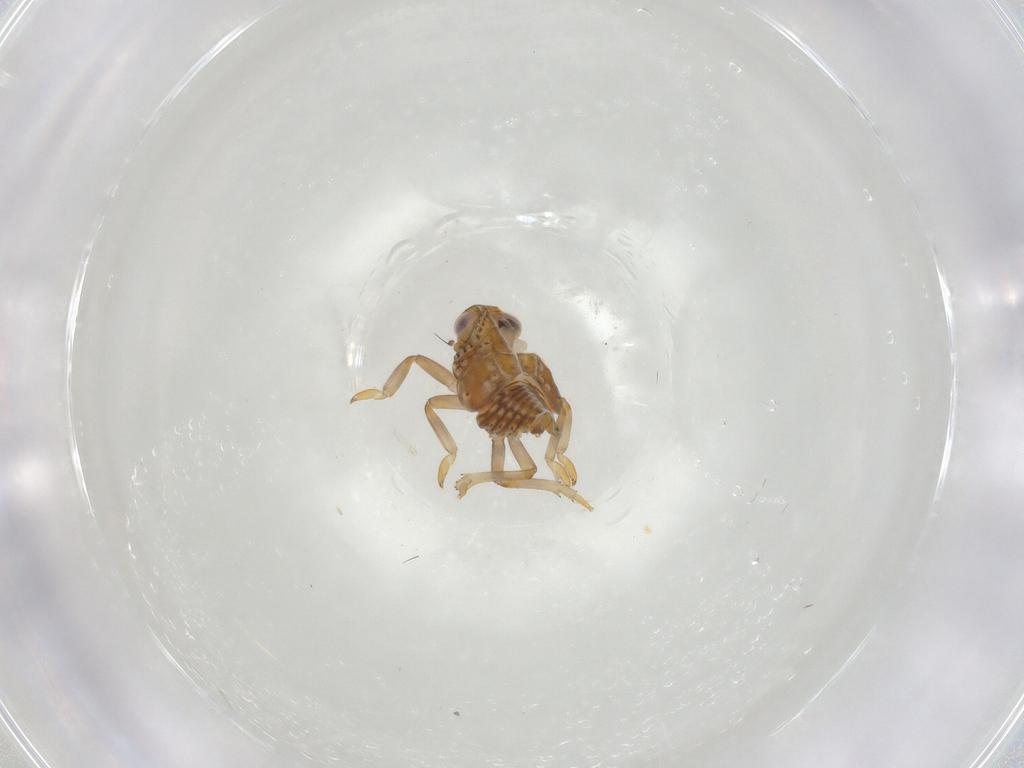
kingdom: Animalia
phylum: Arthropoda
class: Insecta
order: Hemiptera
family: Issidae
